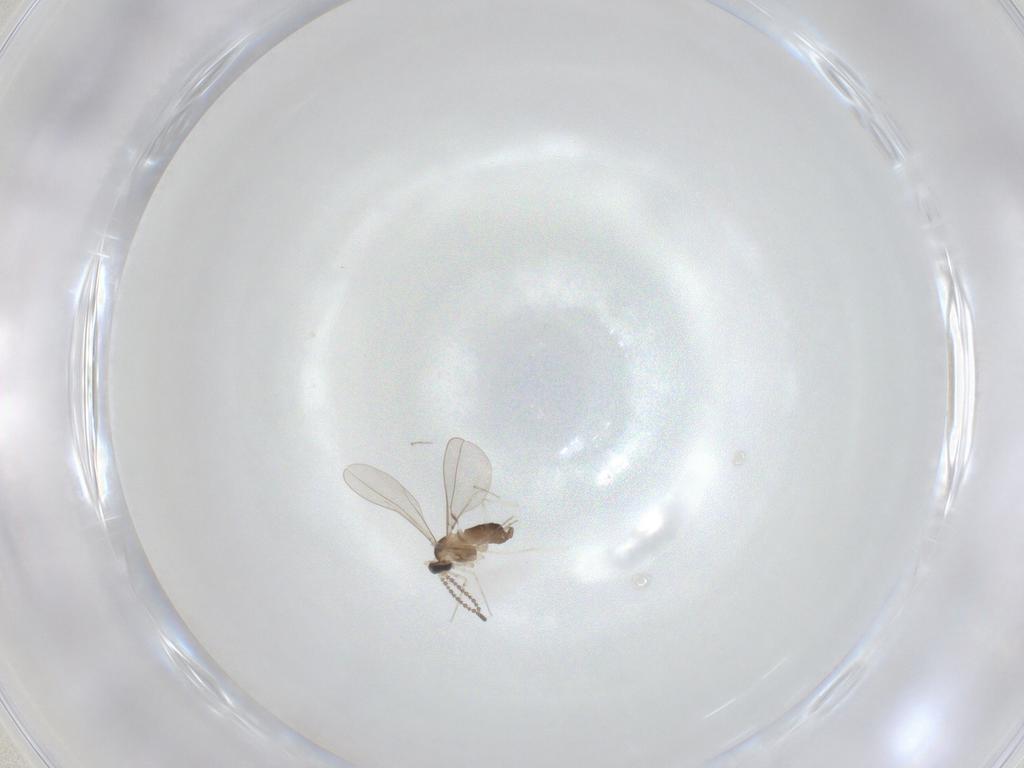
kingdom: Animalia
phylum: Arthropoda
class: Insecta
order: Diptera
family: Cecidomyiidae
